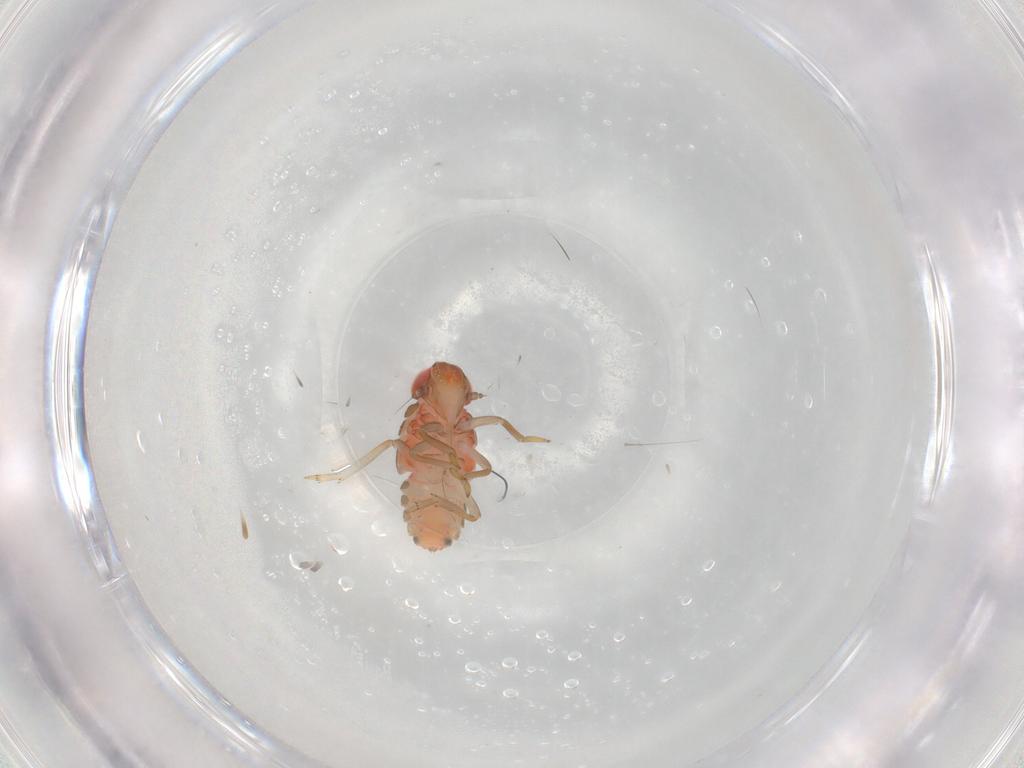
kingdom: Animalia
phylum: Arthropoda
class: Insecta
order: Hemiptera
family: Issidae
